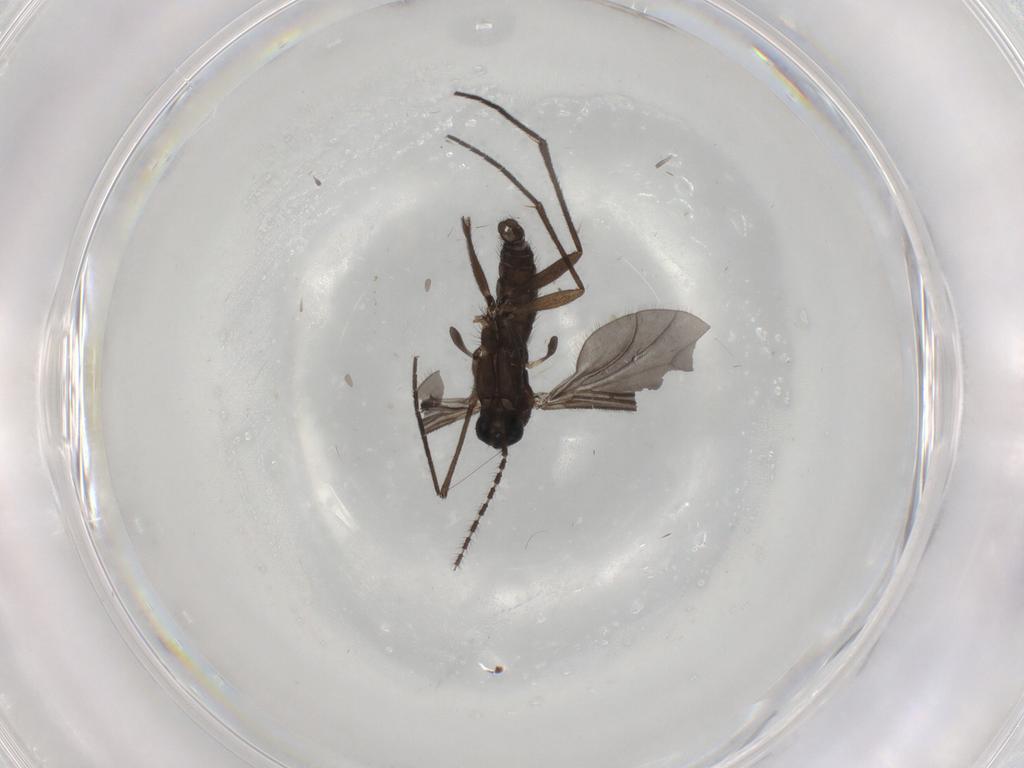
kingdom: Animalia
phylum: Arthropoda
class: Insecta
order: Diptera
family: Sciaridae
